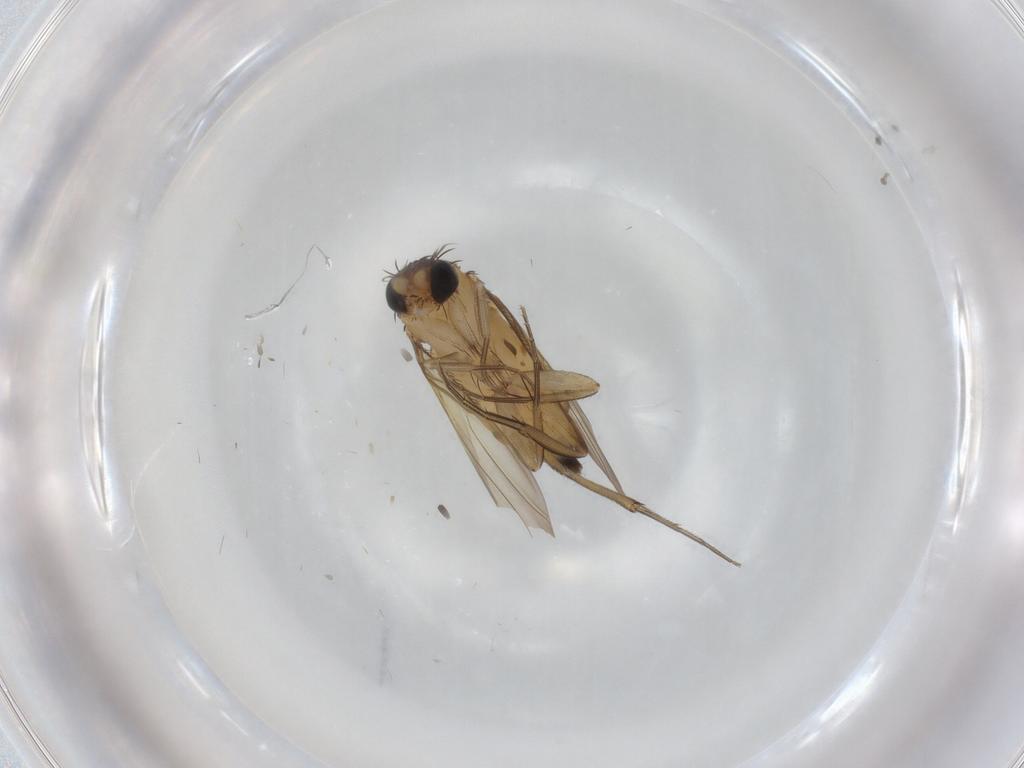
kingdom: Animalia
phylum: Arthropoda
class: Insecta
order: Diptera
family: Phoridae
